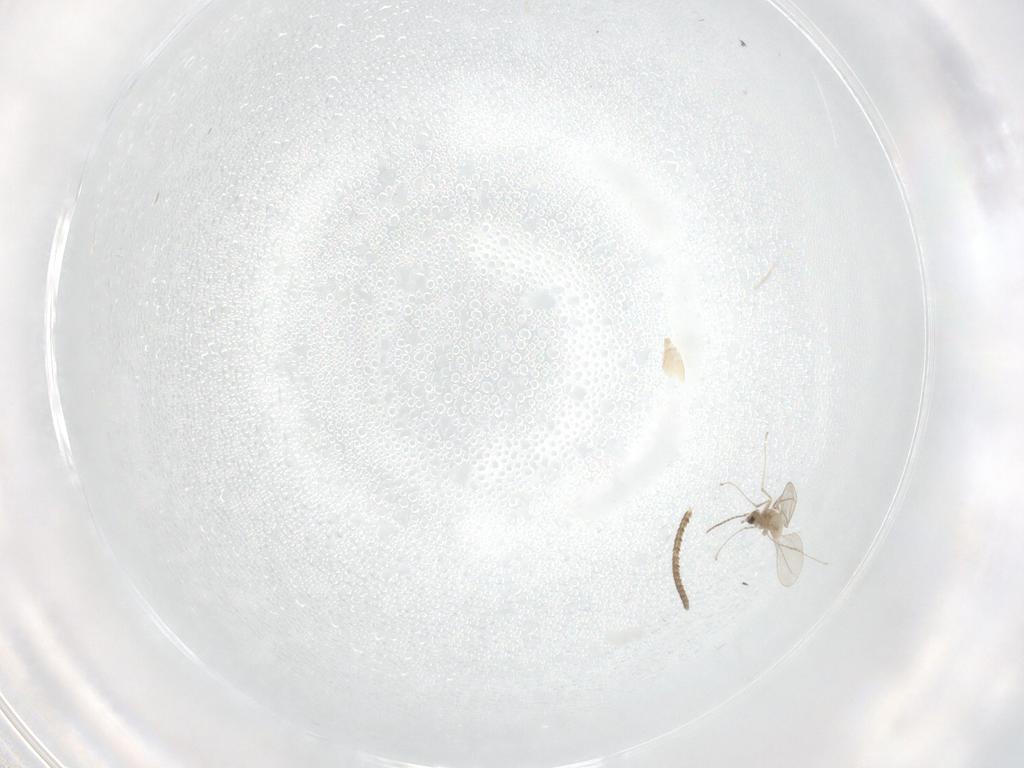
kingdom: Animalia
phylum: Arthropoda
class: Insecta
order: Diptera
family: Cecidomyiidae
